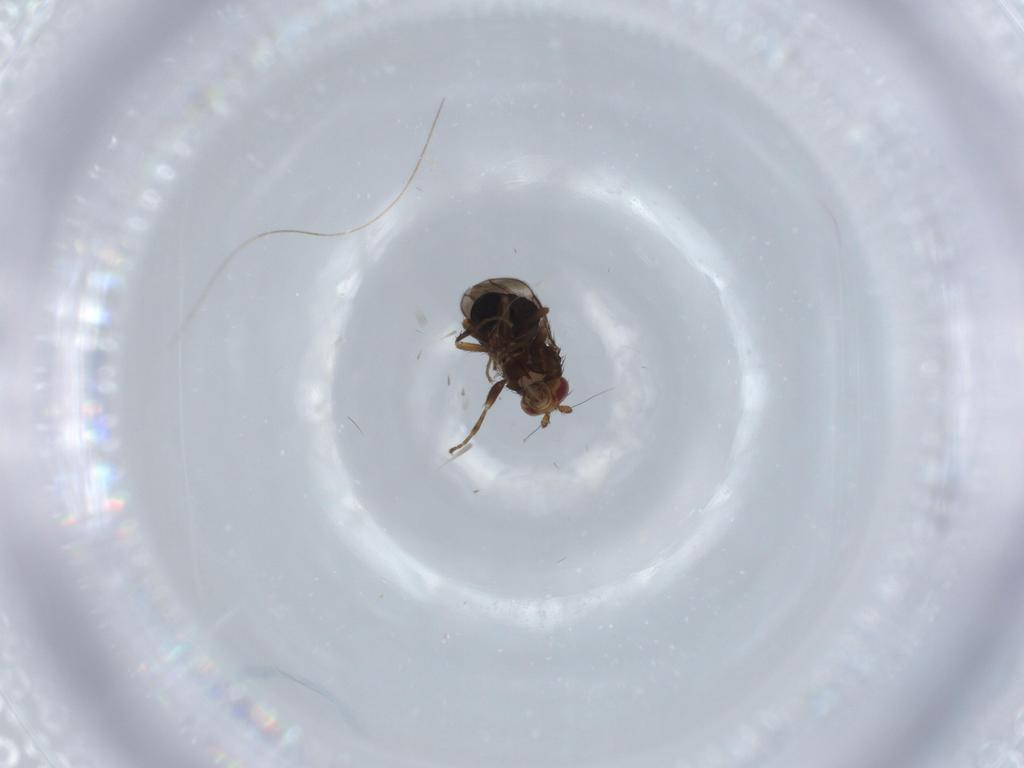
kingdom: Animalia
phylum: Arthropoda
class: Insecta
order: Diptera
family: Sphaeroceridae
